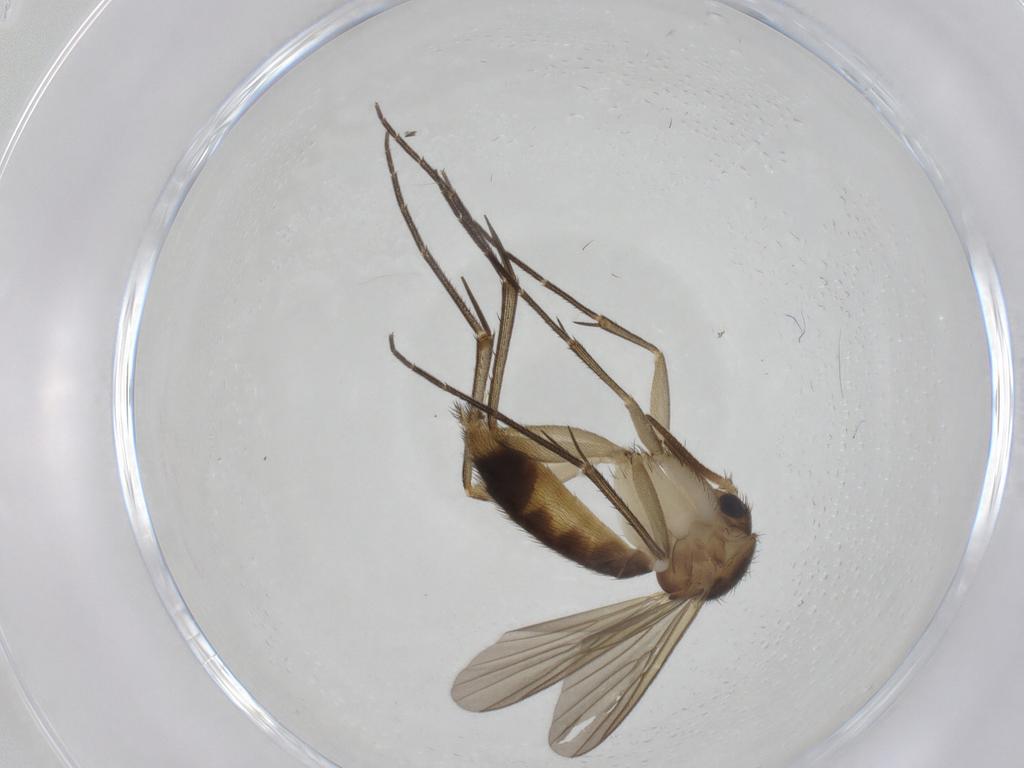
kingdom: Animalia
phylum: Arthropoda
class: Insecta
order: Diptera
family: Mycetophilidae
